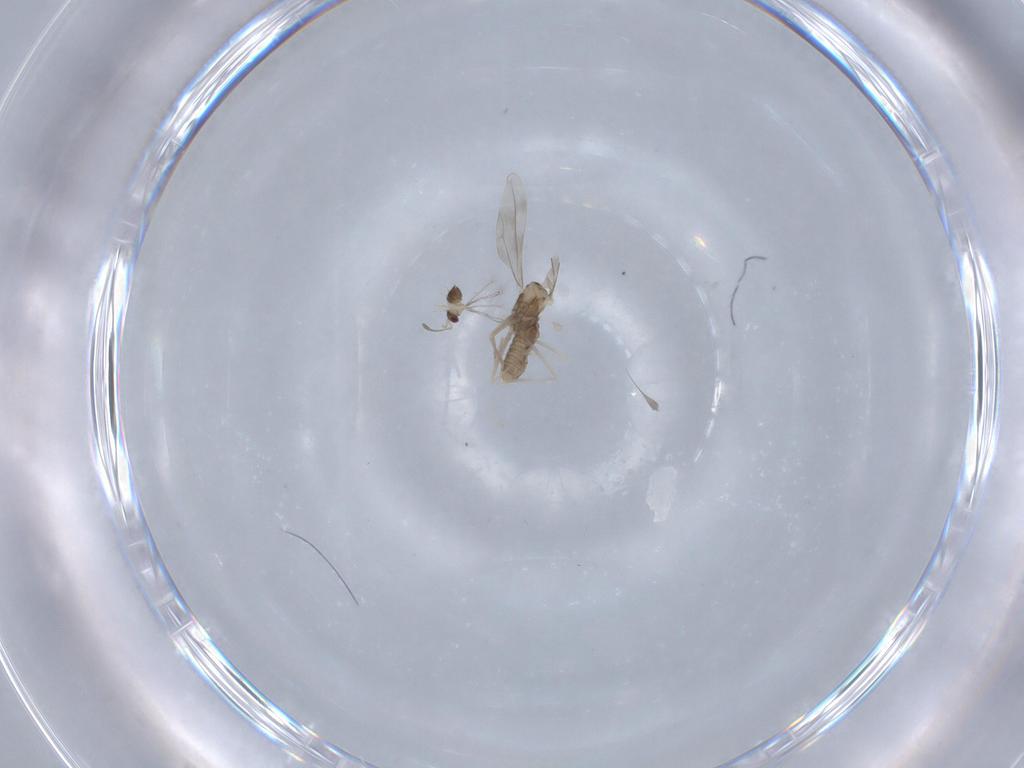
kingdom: Animalia
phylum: Arthropoda
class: Insecta
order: Diptera
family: Cecidomyiidae
